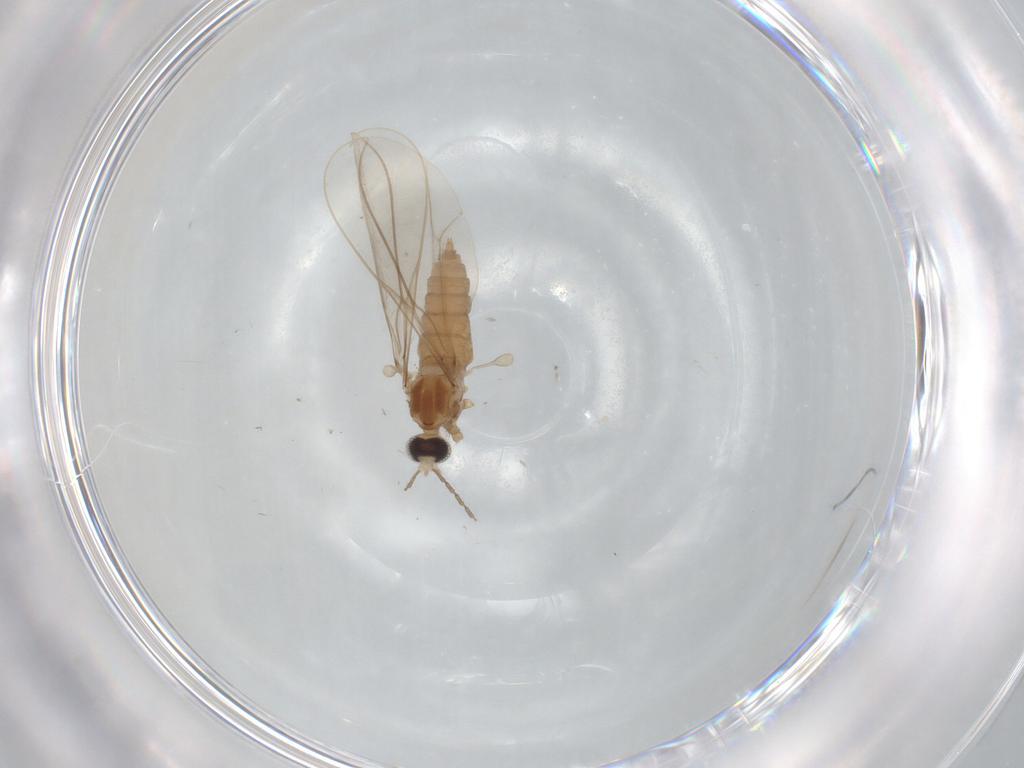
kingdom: Animalia
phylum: Arthropoda
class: Insecta
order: Diptera
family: Cecidomyiidae
